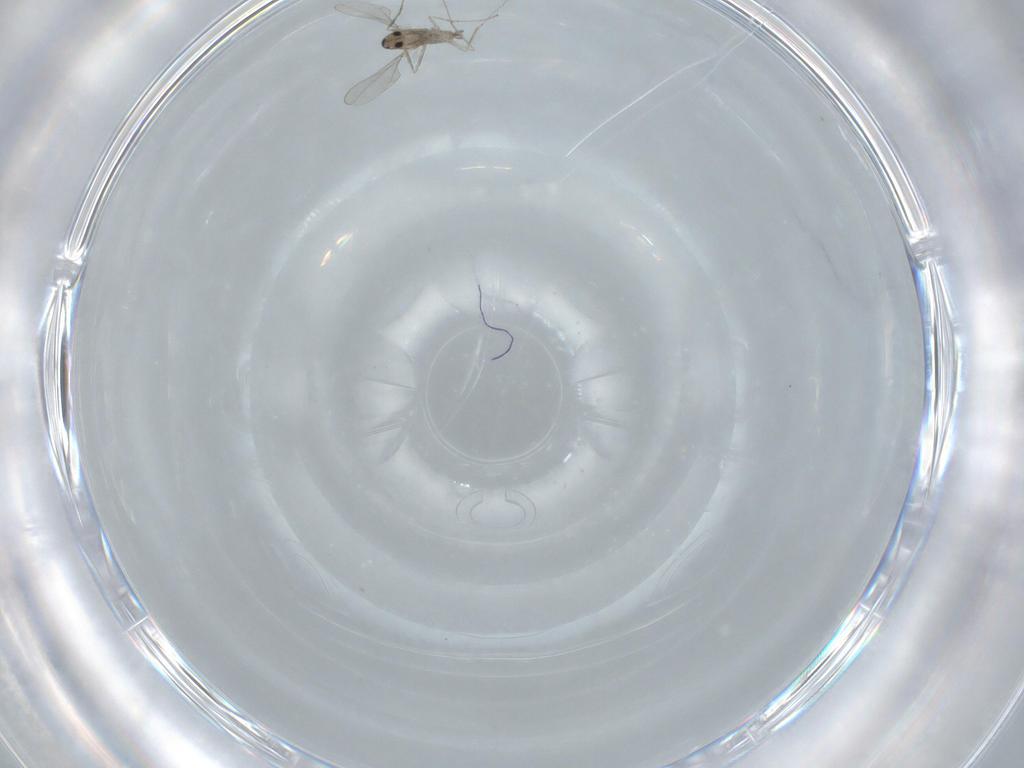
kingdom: Animalia
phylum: Arthropoda
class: Insecta
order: Diptera
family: Cecidomyiidae
